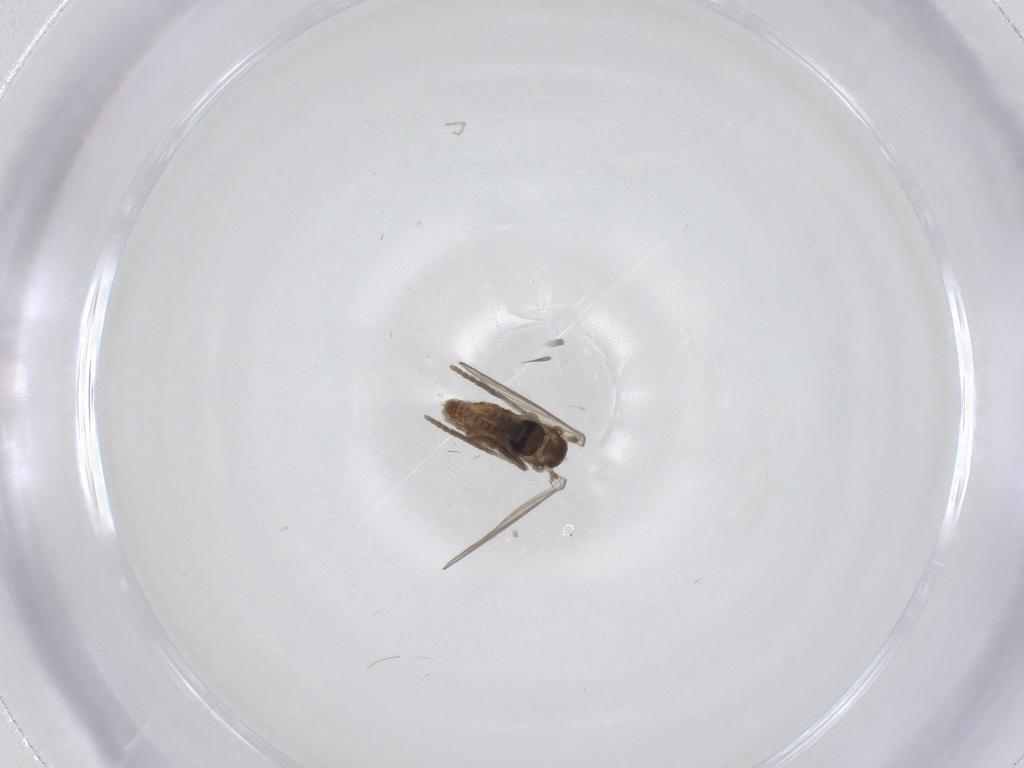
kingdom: Animalia
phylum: Arthropoda
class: Insecta
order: Diptera
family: Psychodidae
